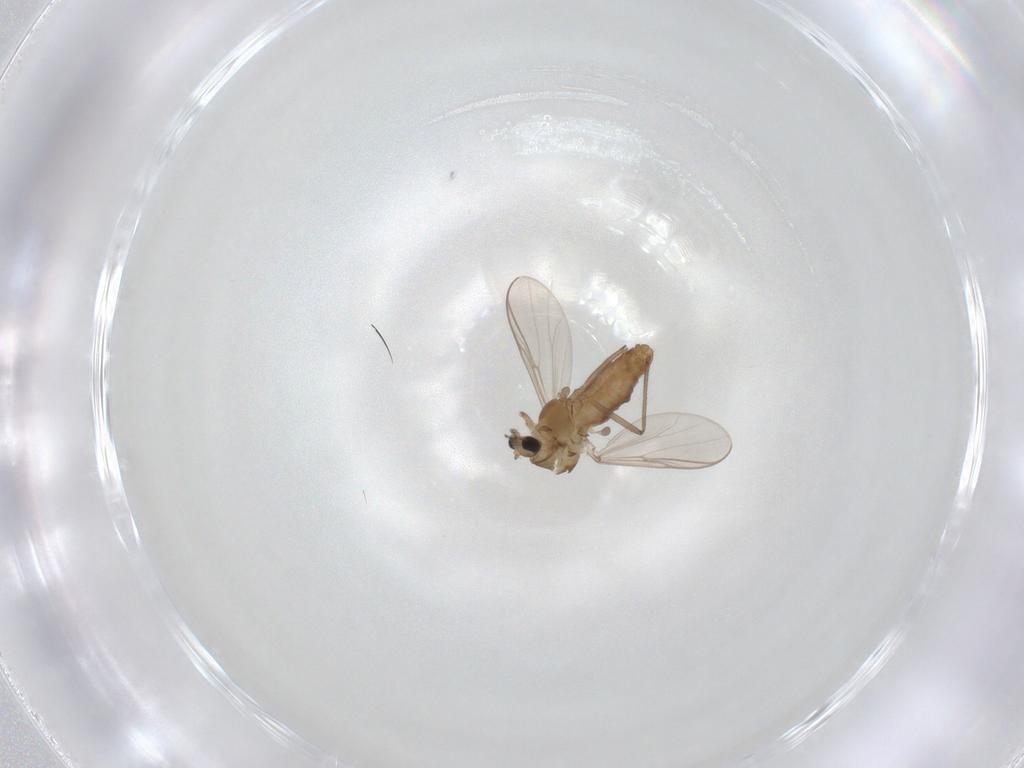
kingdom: Animalia
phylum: Arthropoda
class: Insecta
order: Diptera
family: Chironomidae
